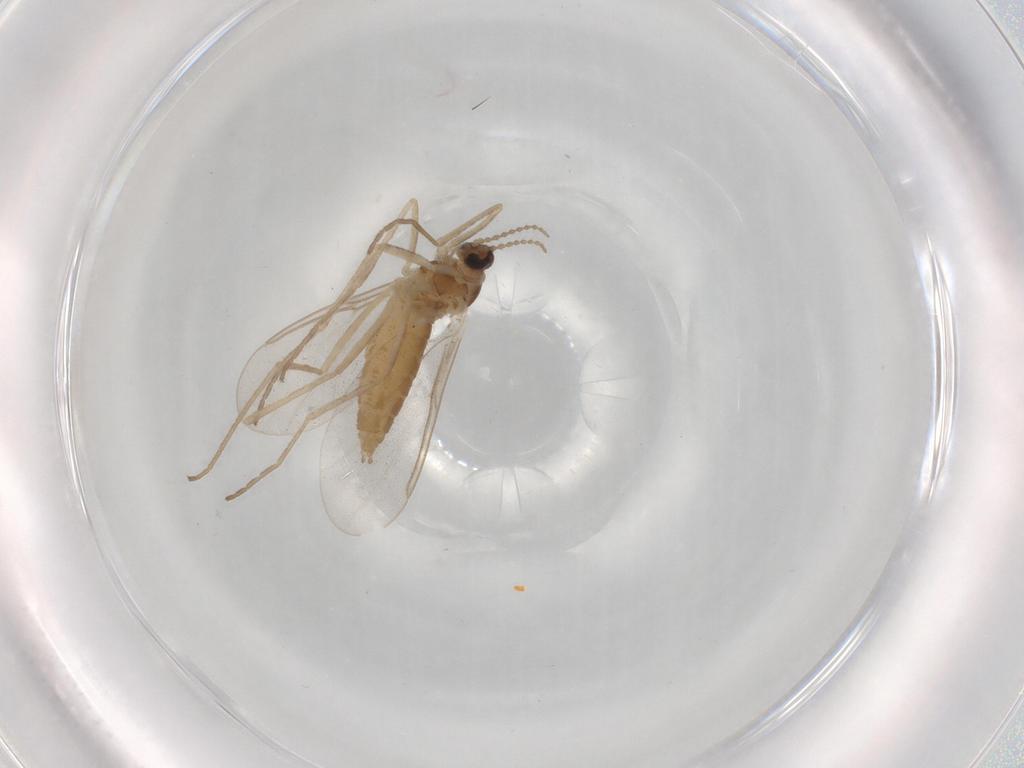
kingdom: Animalia
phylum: Arthropoda
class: Insecta
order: Diptera
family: Cecidomyiidae
